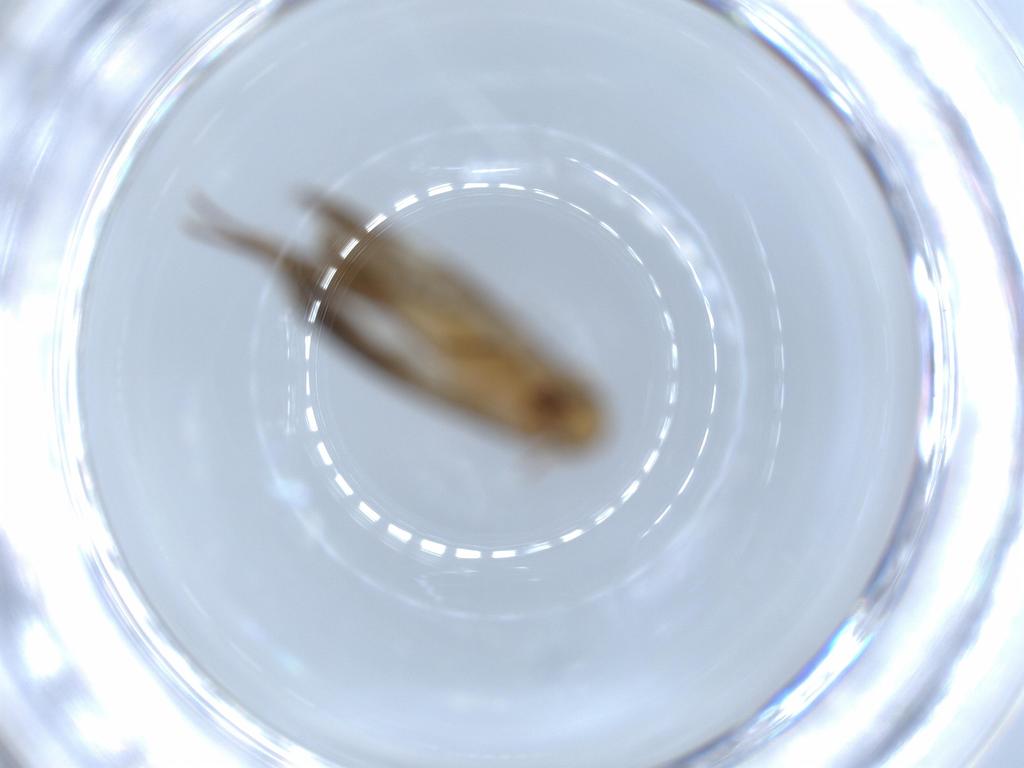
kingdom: Animalia
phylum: Arthropoda
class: Insecta
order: Lepidoptera
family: Tineidae
